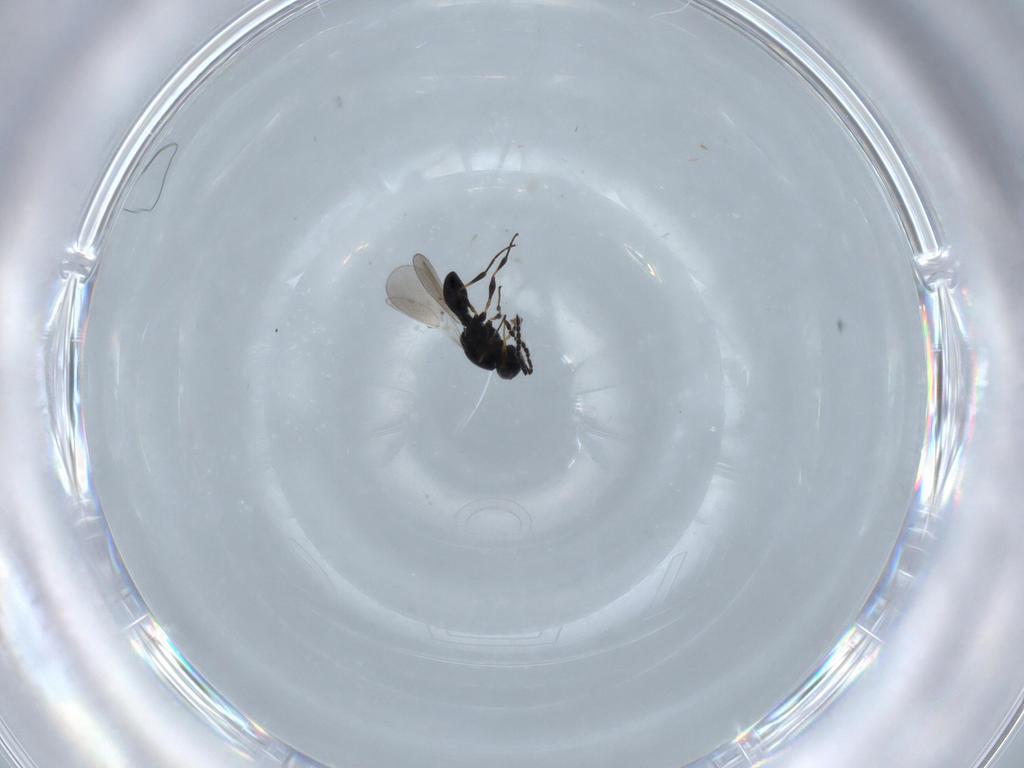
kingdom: Animalia
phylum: Arthropoda
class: Insecta
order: Hymenoptera
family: Platygastridae
